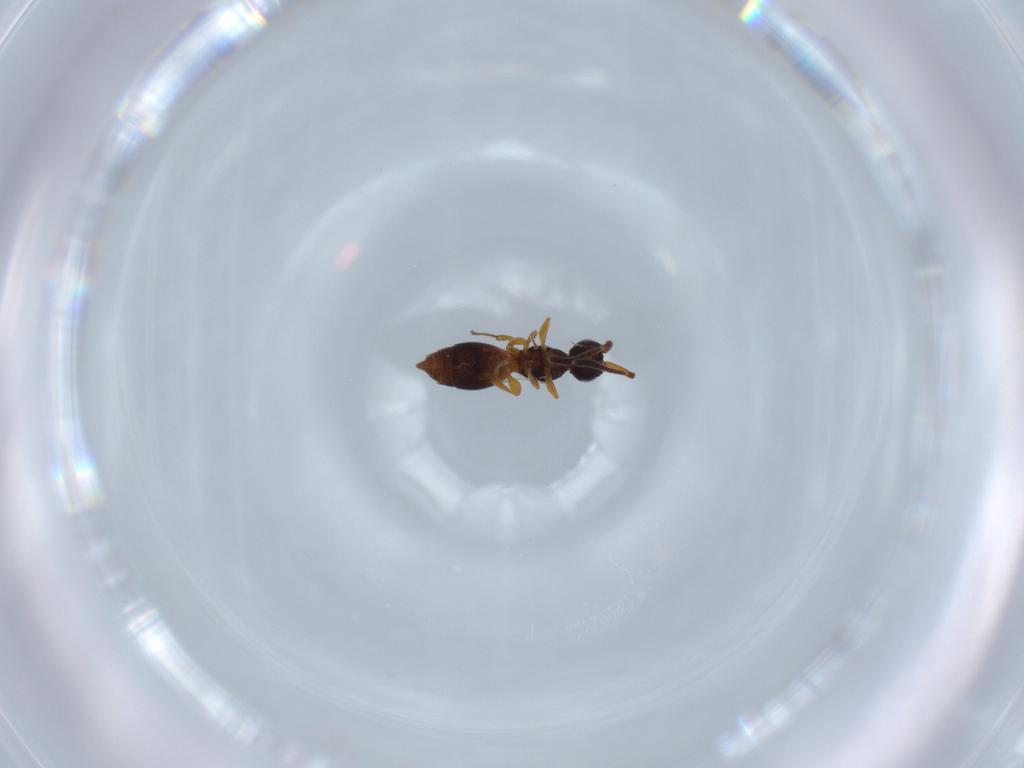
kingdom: Animalia
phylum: Arthropoda
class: Insecta
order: Hymenoptera
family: Megaspilidae
